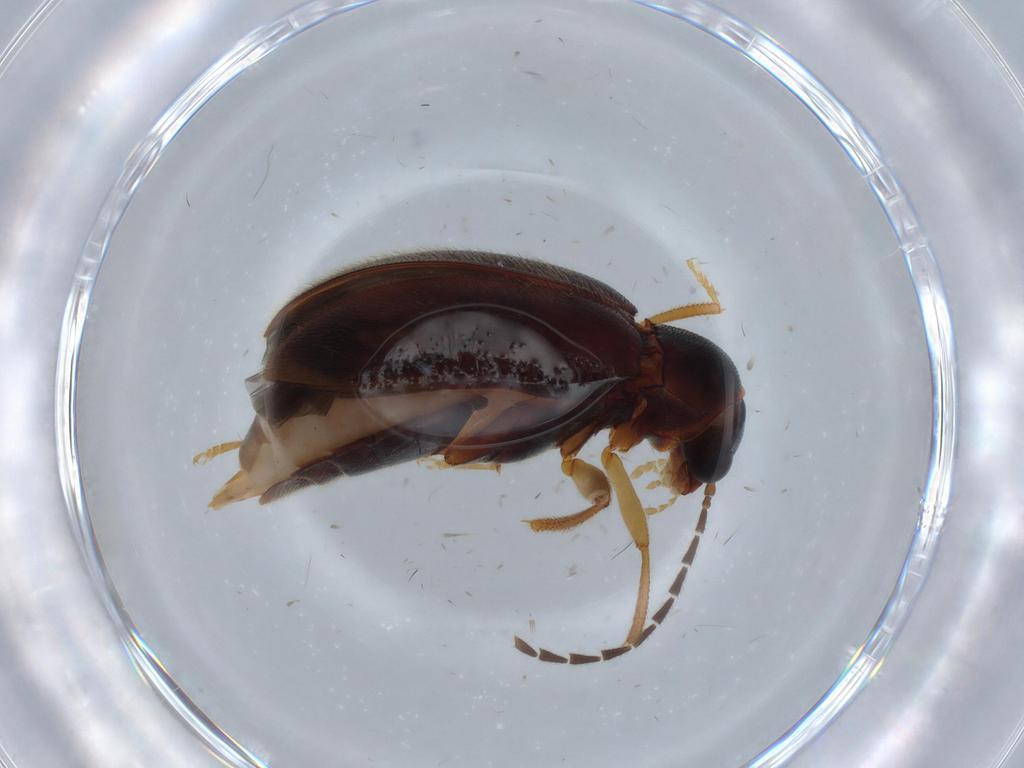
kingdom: Animalia
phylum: Arthropoda
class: Insecta
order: Coleoptera
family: Ptilodactylidae
